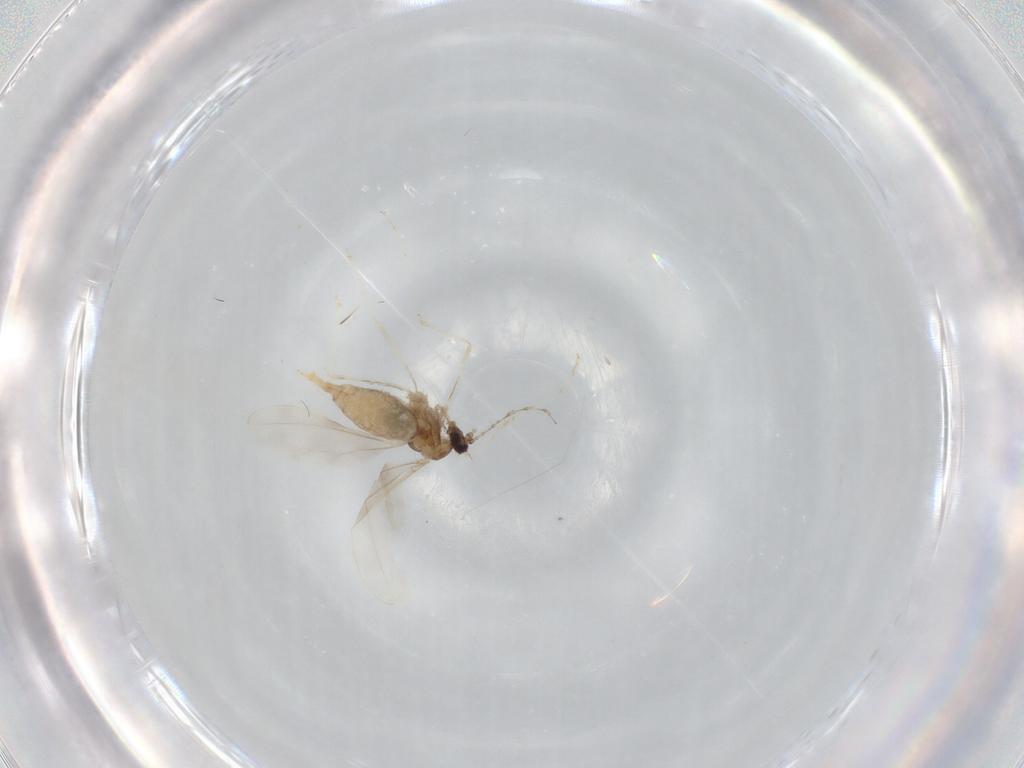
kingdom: Animalia
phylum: Arthropoda
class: Insecta
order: Diptera
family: Cecidomyiidae
